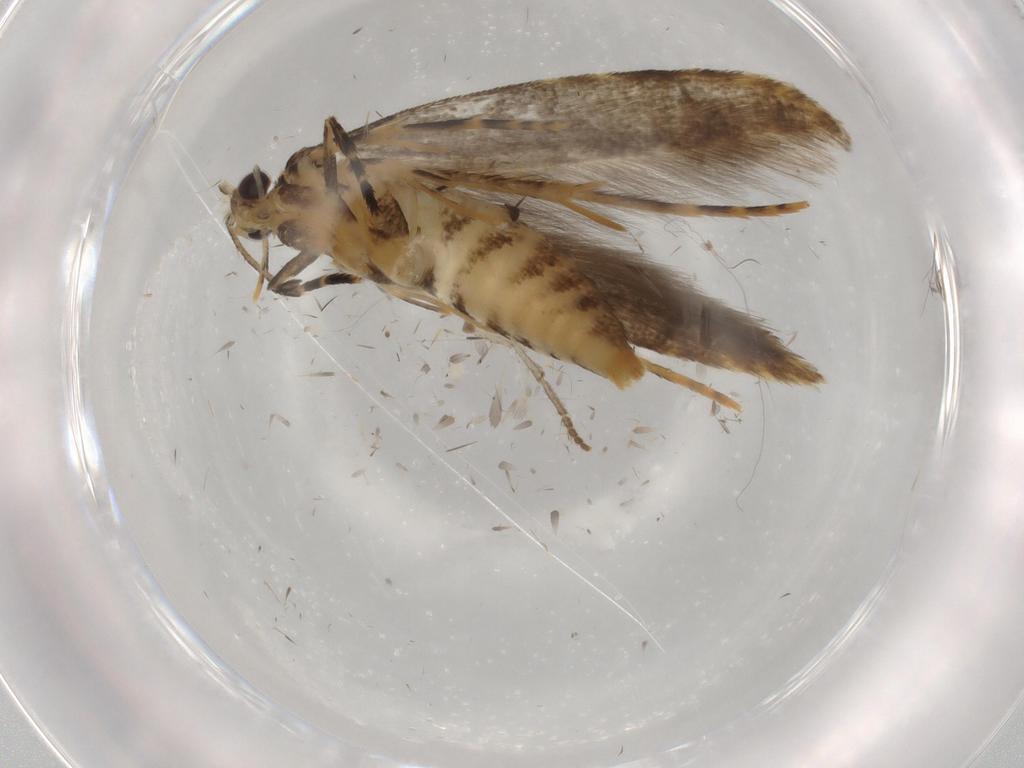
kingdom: Animalia
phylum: Arthropoda
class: Insecta
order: Lepidoptera
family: Tineidae
